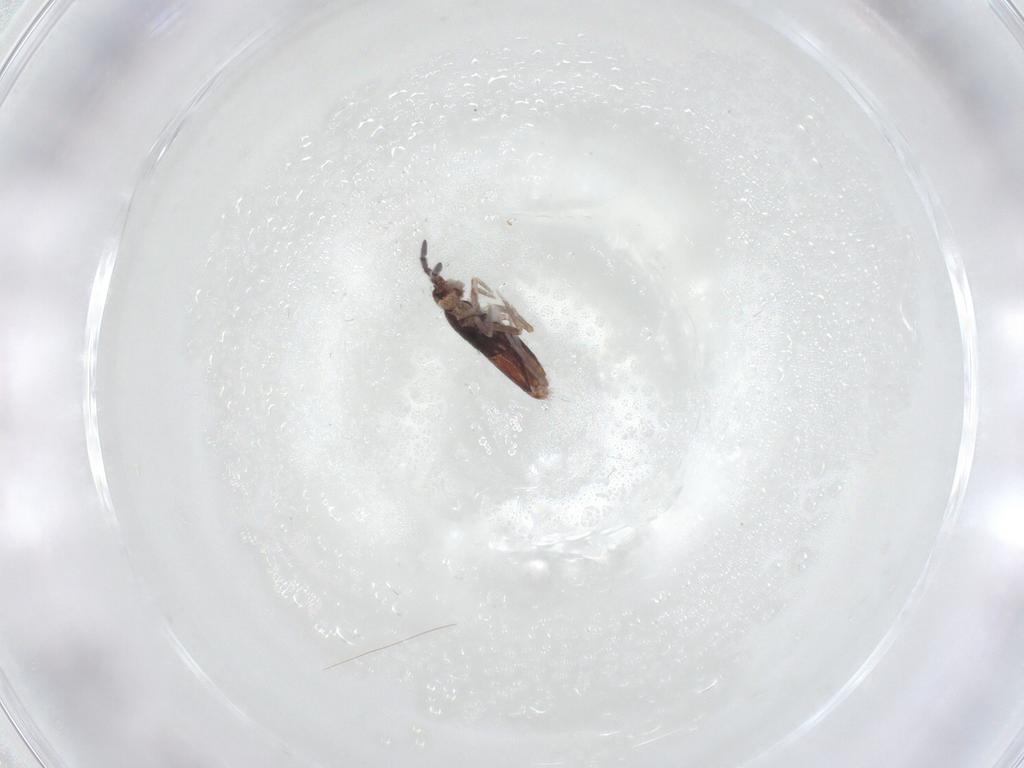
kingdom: Animalia
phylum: Arthropoda
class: Collembola
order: Entomobryomorpha
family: Entomobryidae
